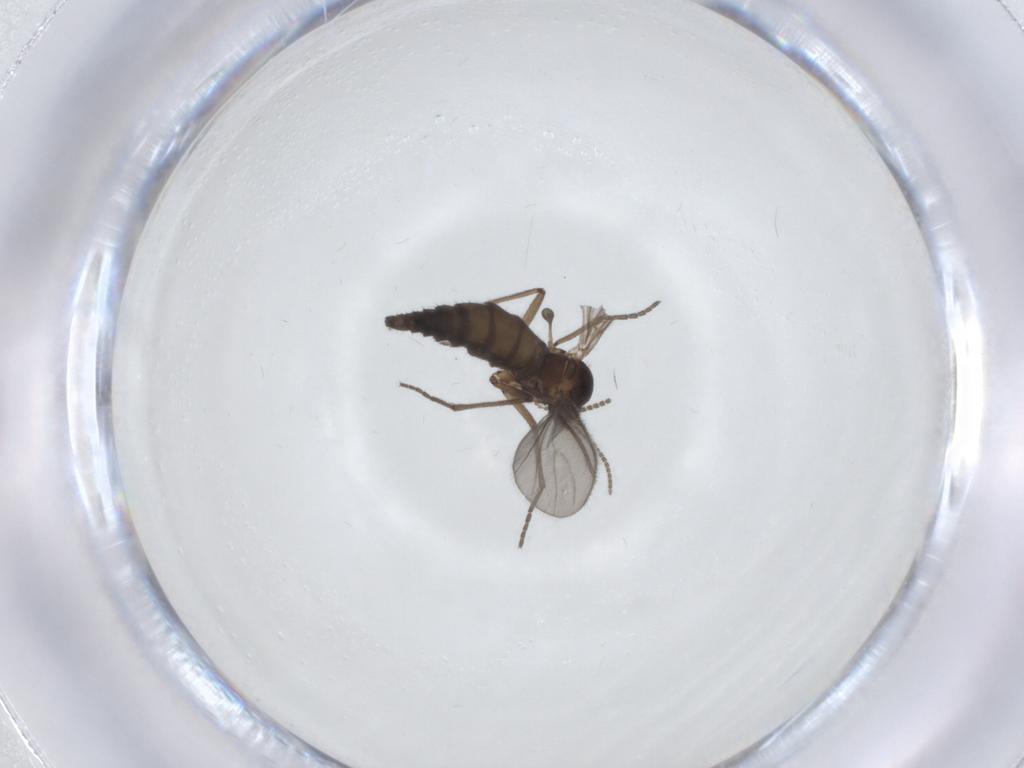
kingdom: Animalia
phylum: Arthropoda
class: Insecta
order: Diptera
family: Sciaridae
